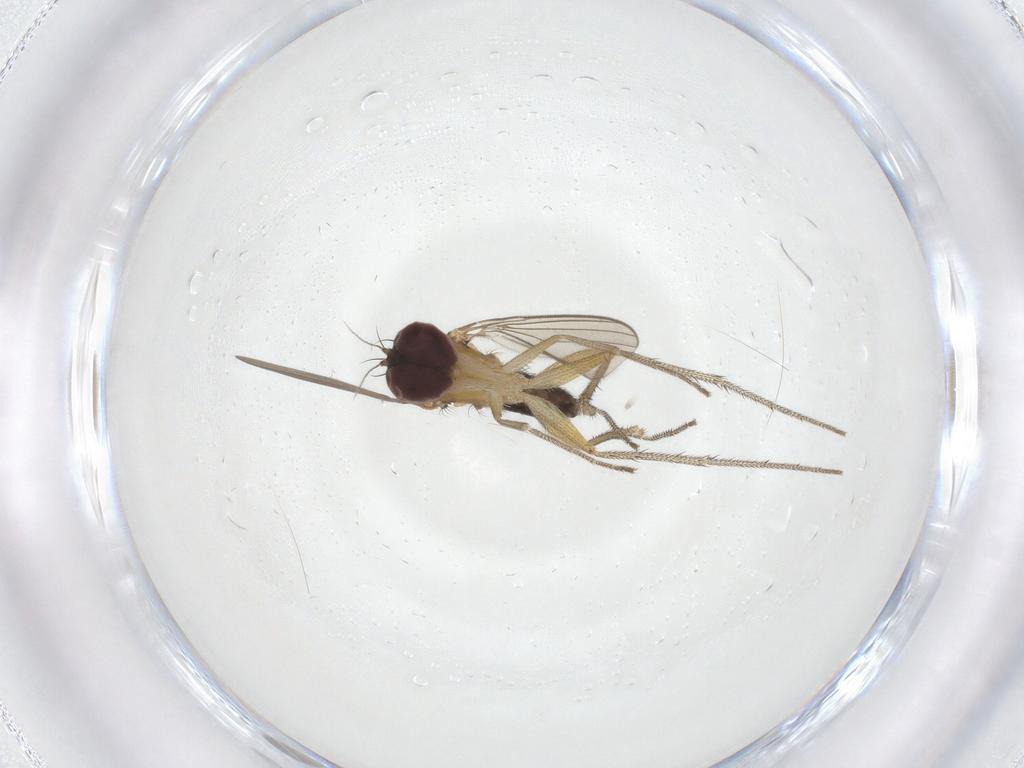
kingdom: Animalia
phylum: Arthropoda
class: Insecta
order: Diptera
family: Dolichopodidae
